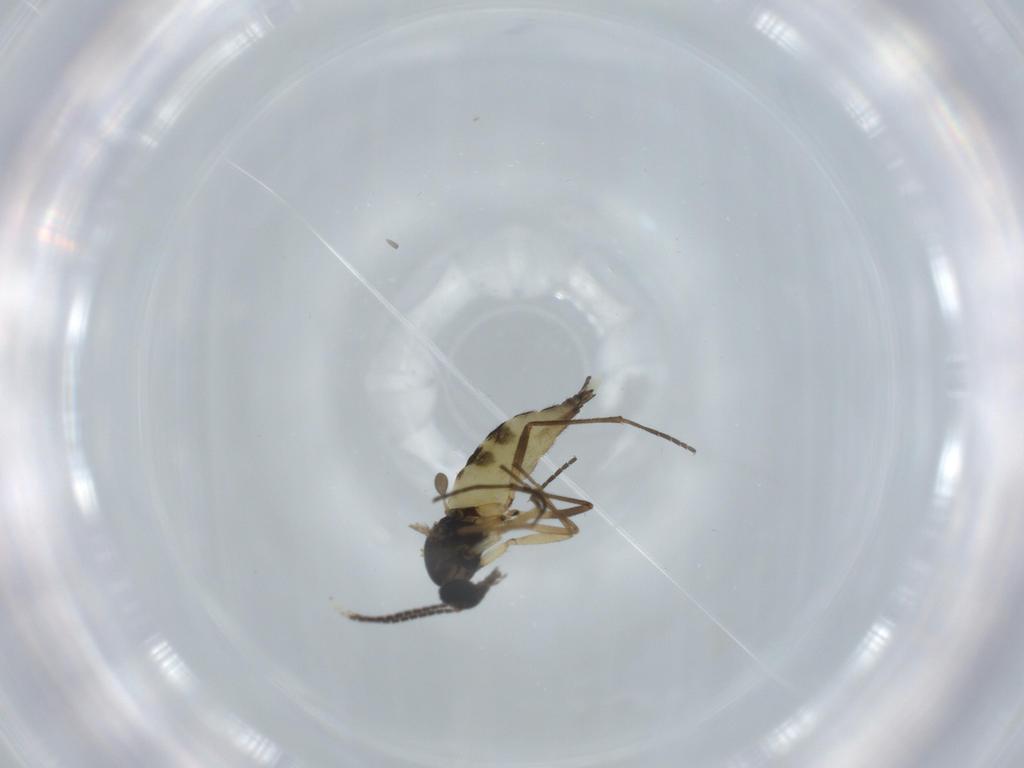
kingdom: Animalia
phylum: Arthropoda
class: Insecta
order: Diptera
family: Sciaridae
